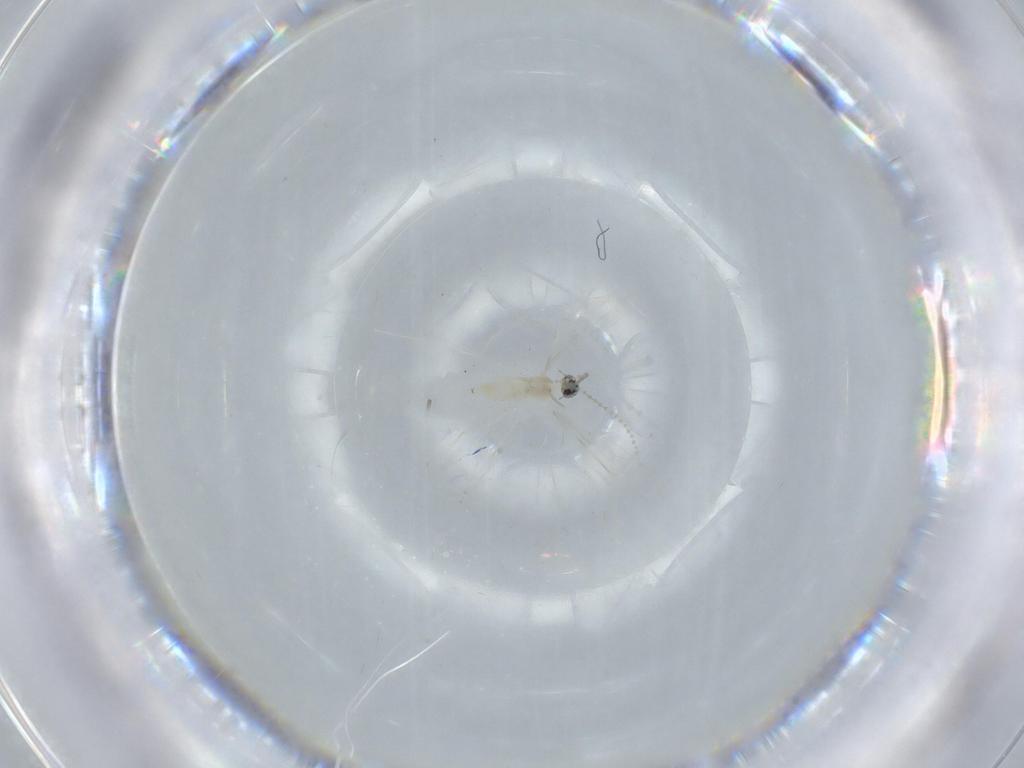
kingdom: Animalia
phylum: Arthropoda
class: Insecta
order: Diptera
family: Cecidomyiidae
